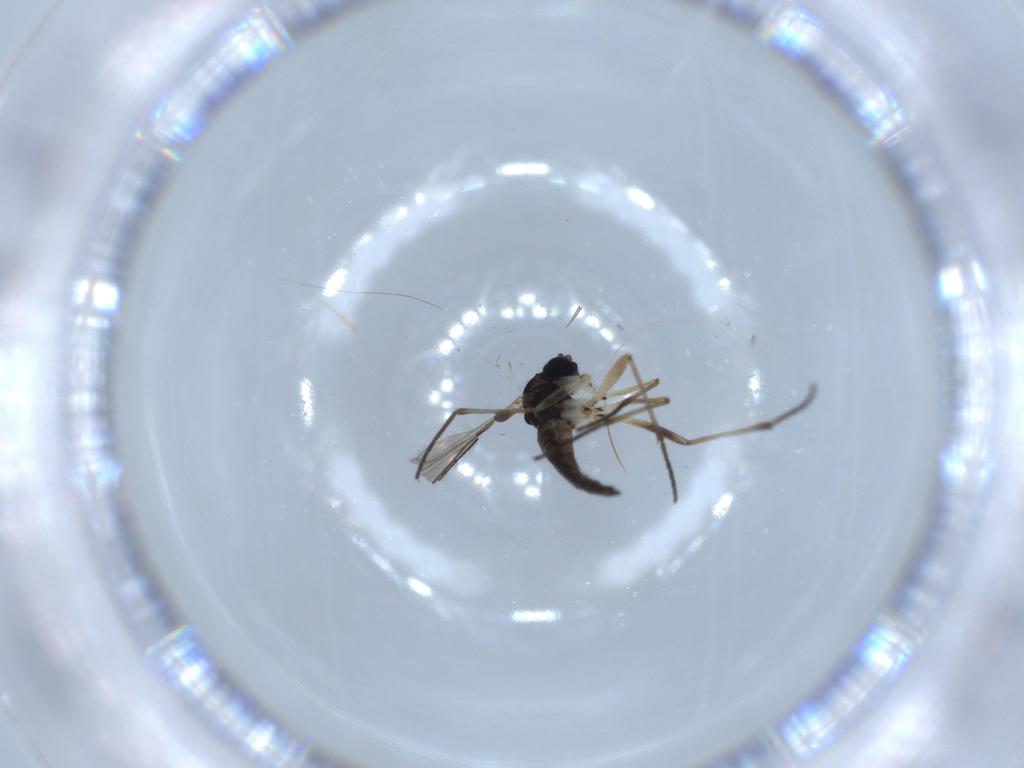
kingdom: Animalia
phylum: Arthropoda
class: Insecta
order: Diptera
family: Sciaridae
